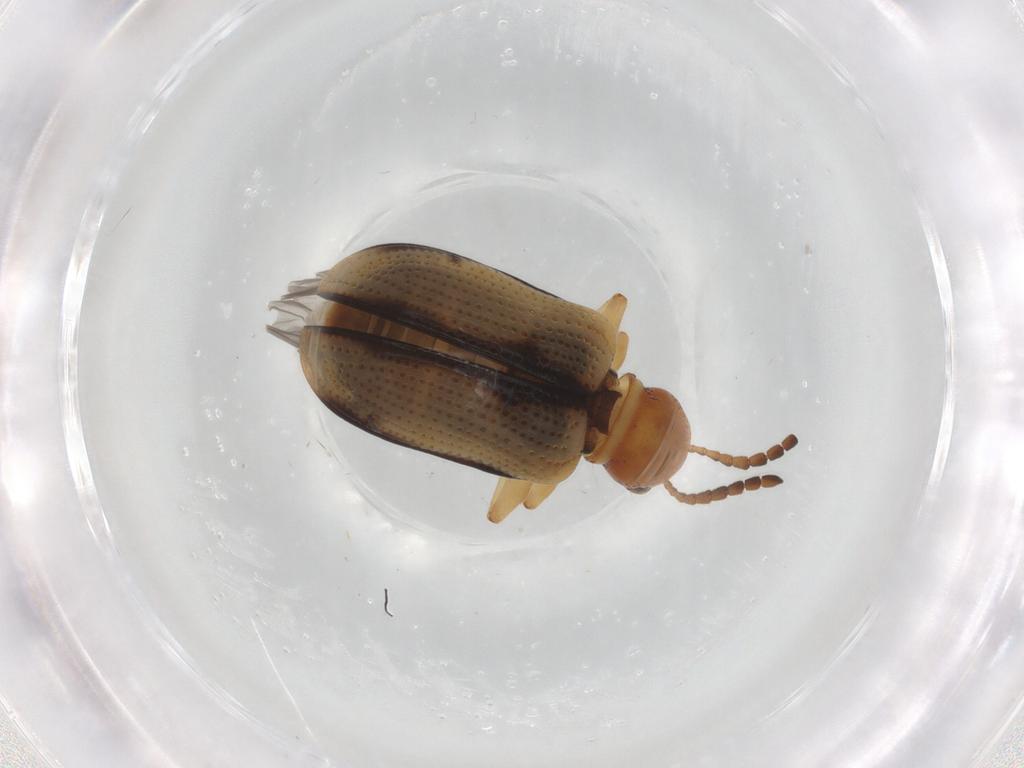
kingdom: Animalia
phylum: Arthropoda
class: Insecta
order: Coleoptera
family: Chrysomelidae
